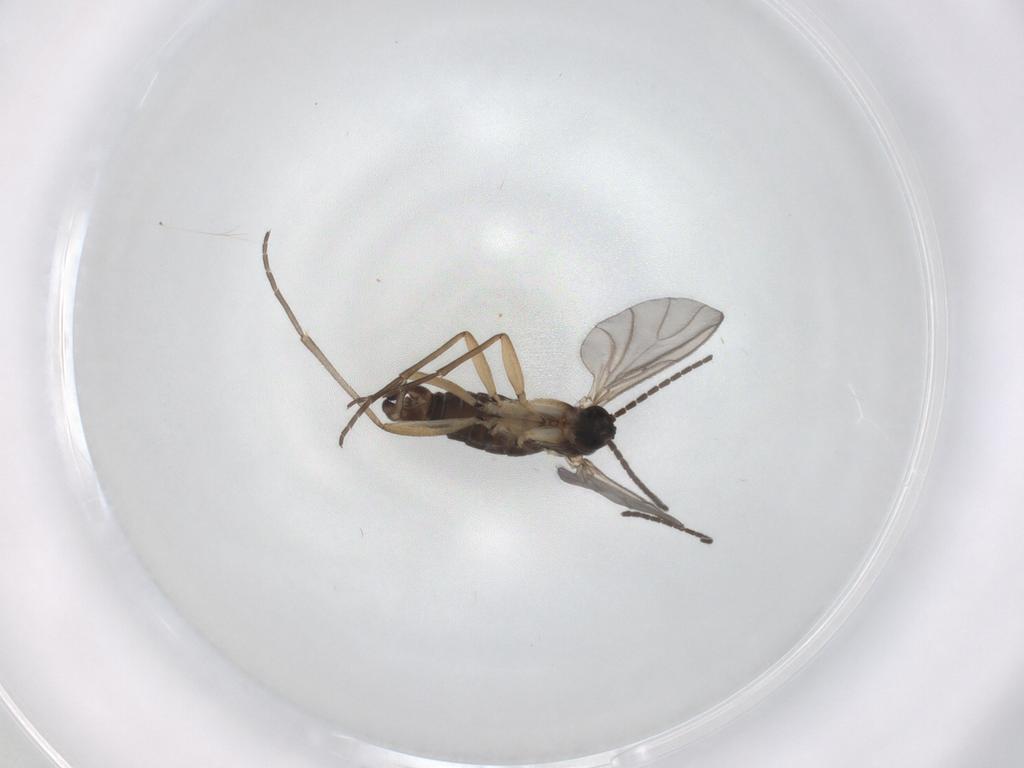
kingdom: Animalia
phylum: Arthropoda
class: Insecta
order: Diptera
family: Sciaridae
